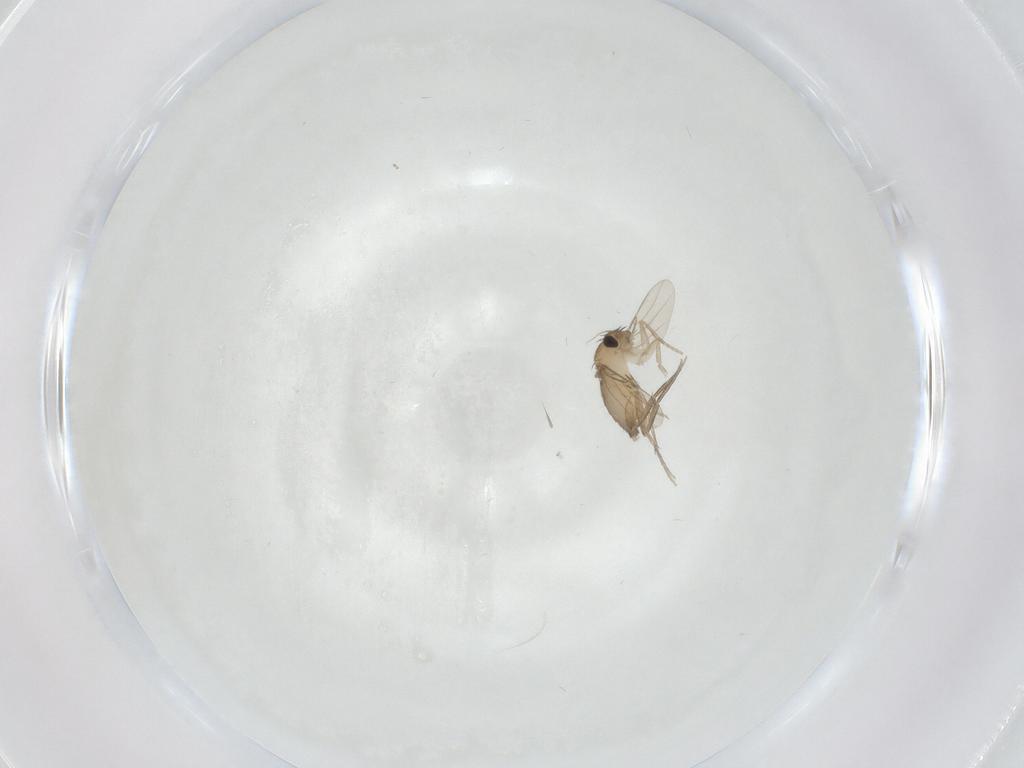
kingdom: Animalia
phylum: Arthropoda
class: Insecta
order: Diptera
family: Phoridae
